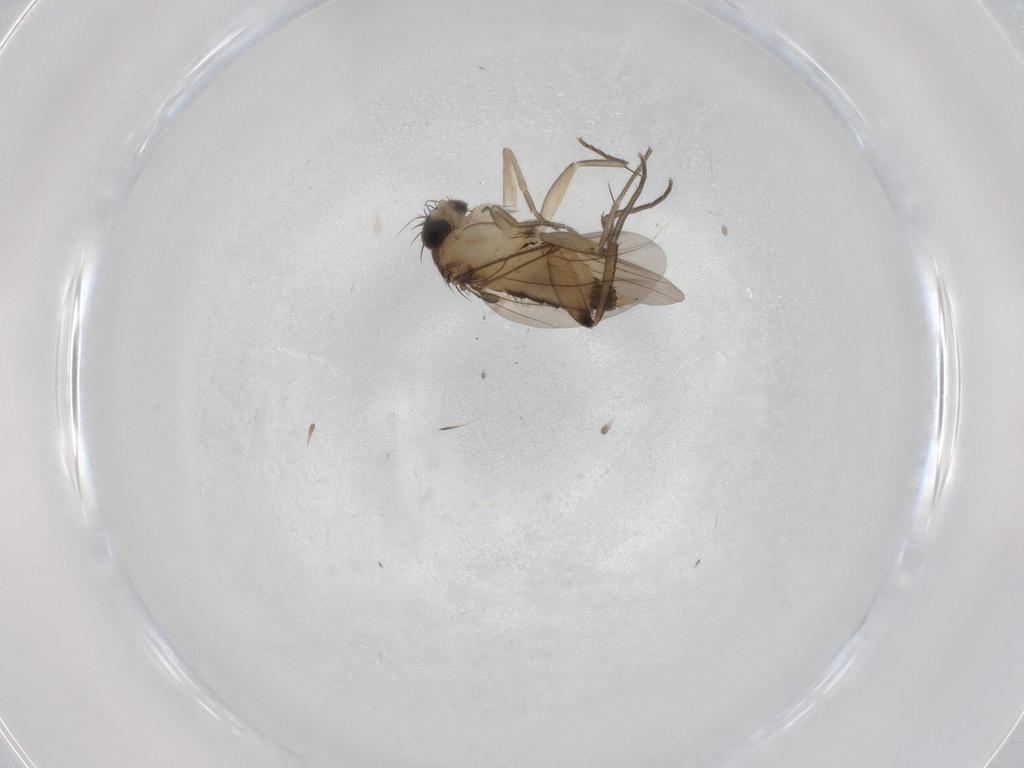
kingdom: Animalia
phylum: Arthropoda
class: Insecta
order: Diptera
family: Phoridae
